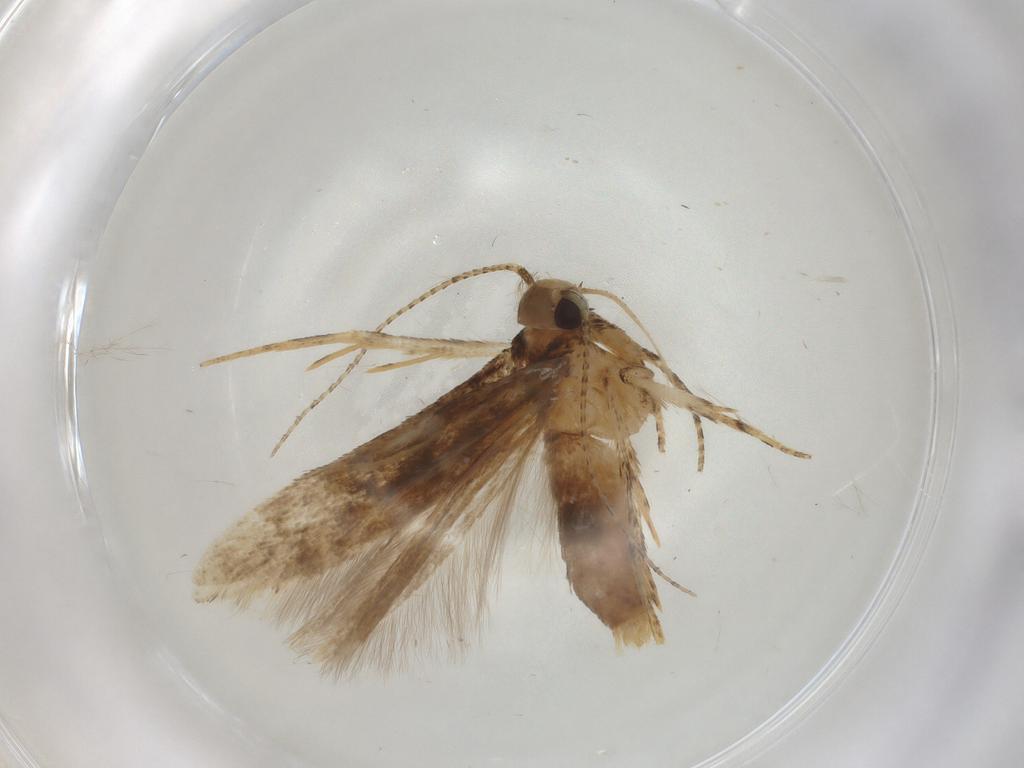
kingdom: Animalia
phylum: Arthropoda
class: Insecta
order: Lepidoptera
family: Gelechiidae
